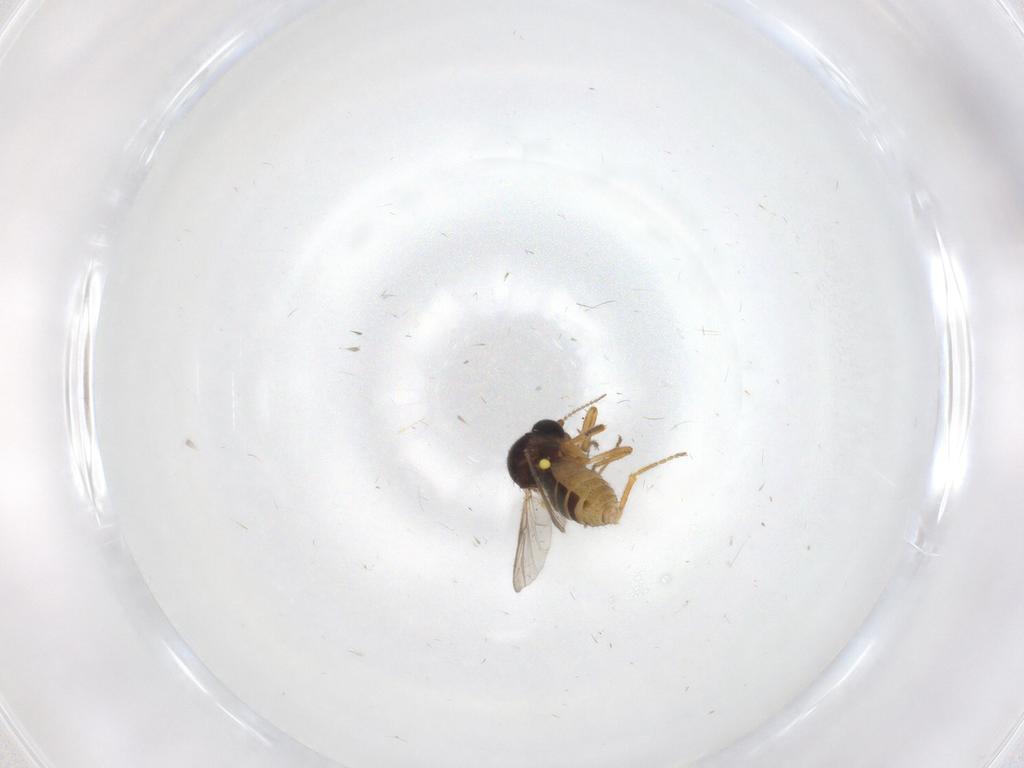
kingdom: Animalia
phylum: Arthropoda
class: Insecta
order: Diptera
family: Ceratopogonidae
